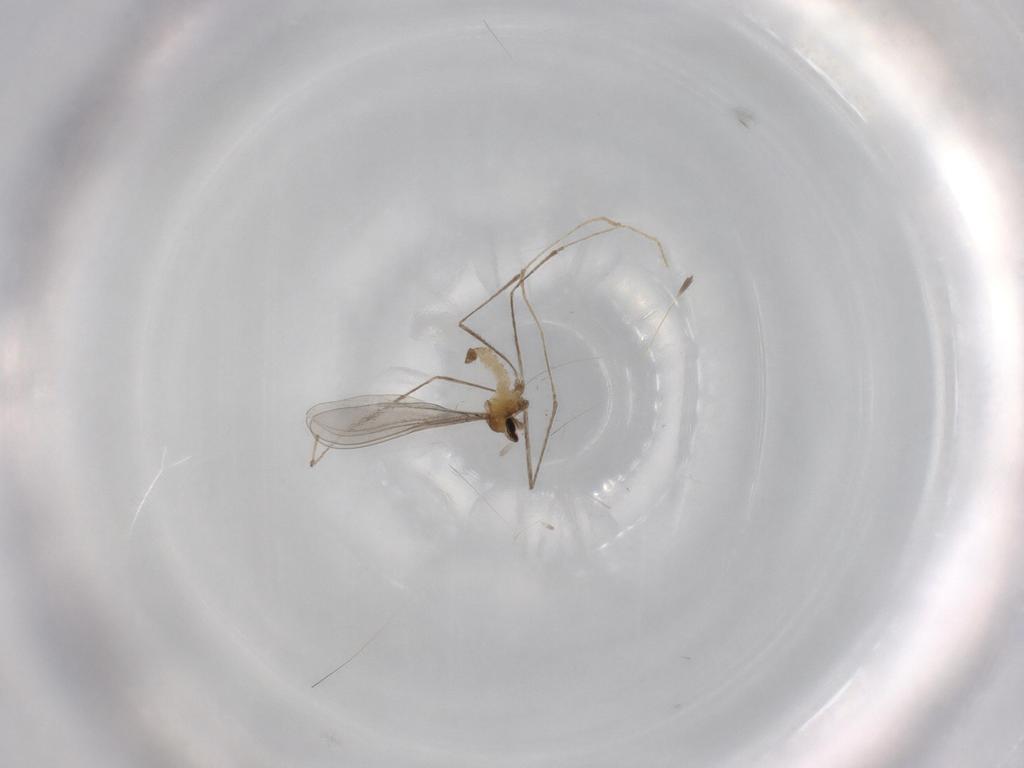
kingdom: Animalia
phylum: Arthropoda
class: Insecta
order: Diptera
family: Cecidomyiidae
